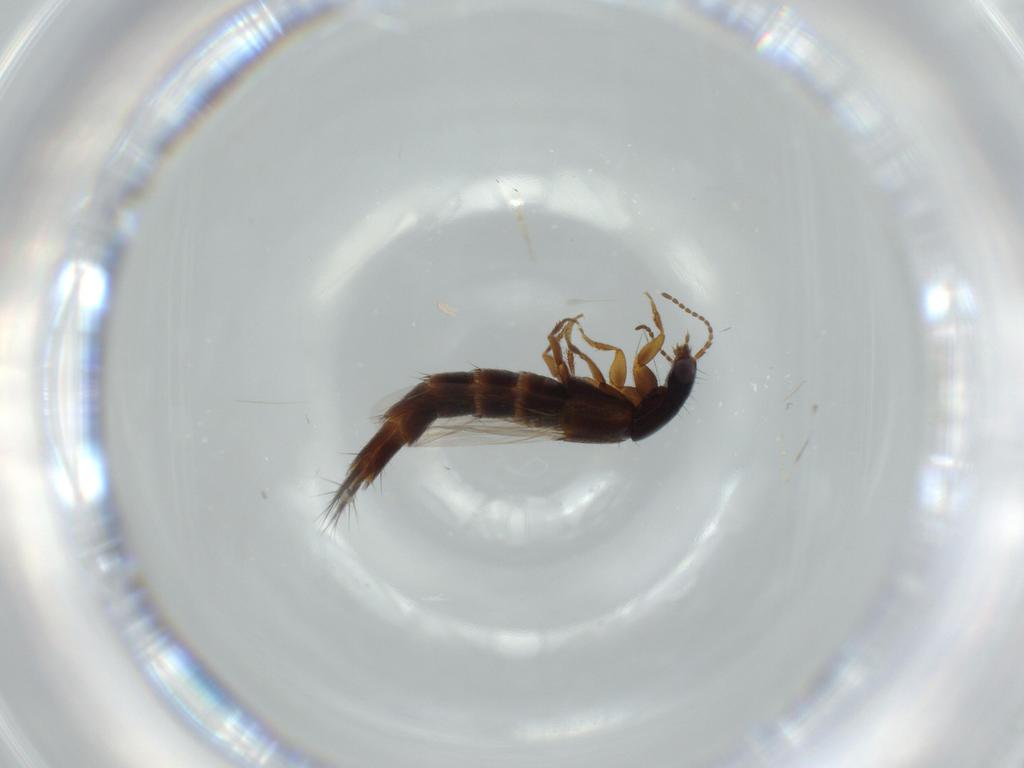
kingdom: Animalia
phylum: Arthropoda
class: Insecta
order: Coleoptera
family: Staphylinidae
